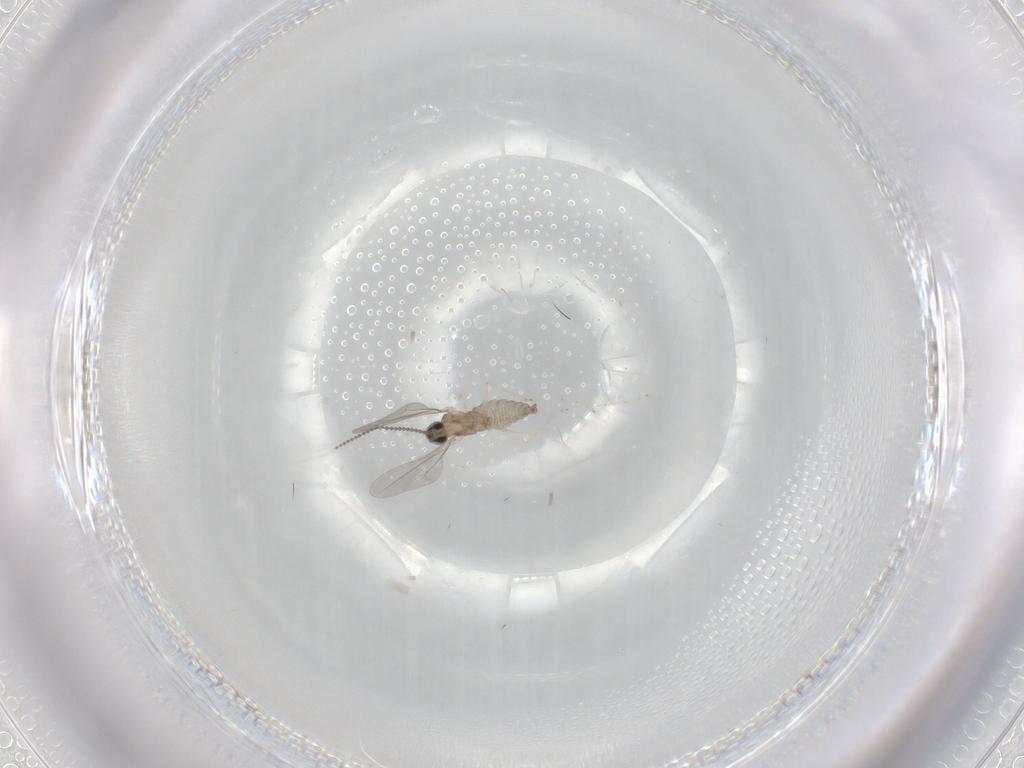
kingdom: Animalia
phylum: Arthropoda
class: Insecta
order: Diptera
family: Cecidomyiidae
